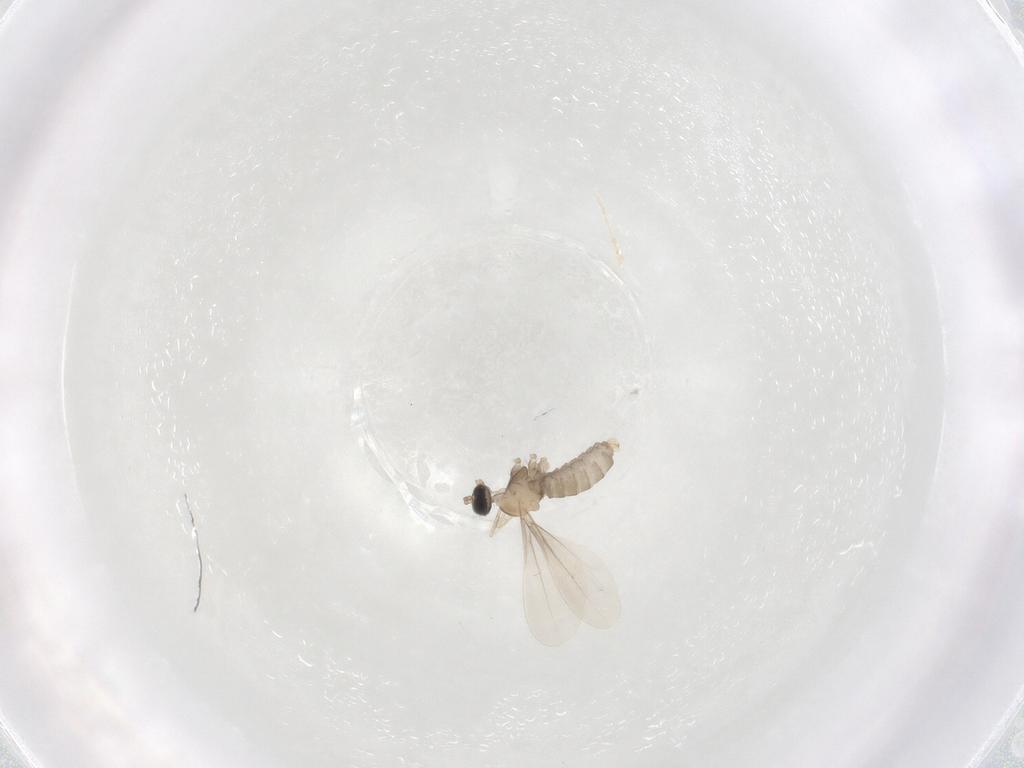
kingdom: Animalia
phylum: Arthropoda
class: Insecta
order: Diptera
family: Cecidomyiidae
